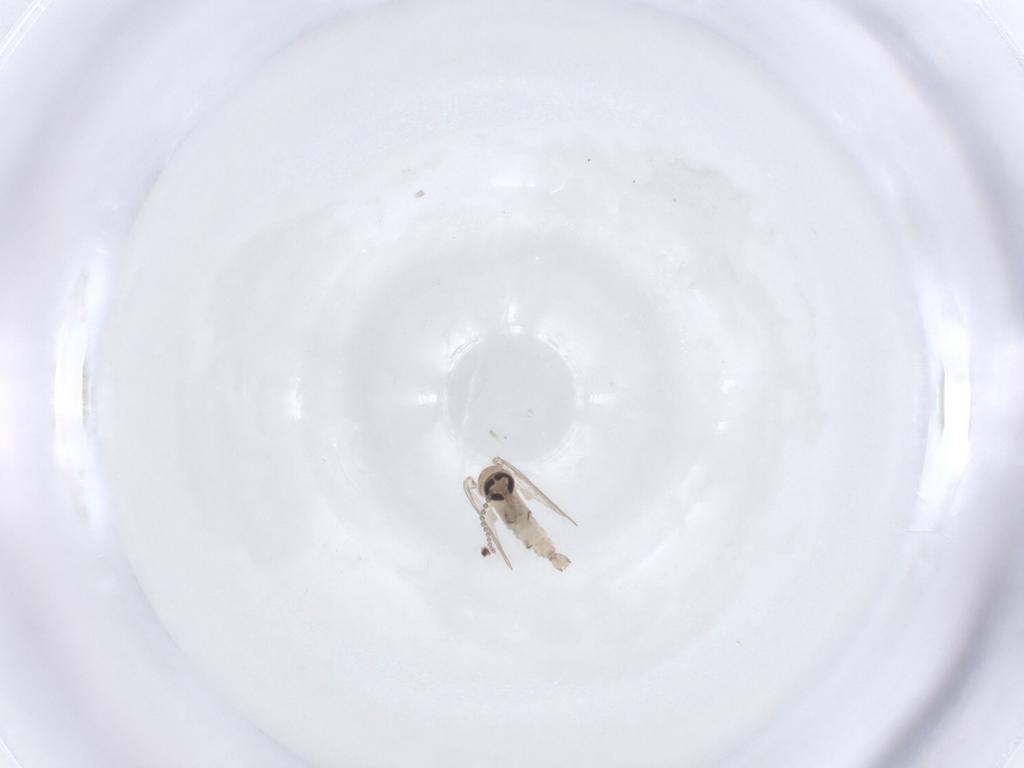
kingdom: Animalia
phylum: Arthropoda
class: Insecta
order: Diptera
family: Psychodidae
